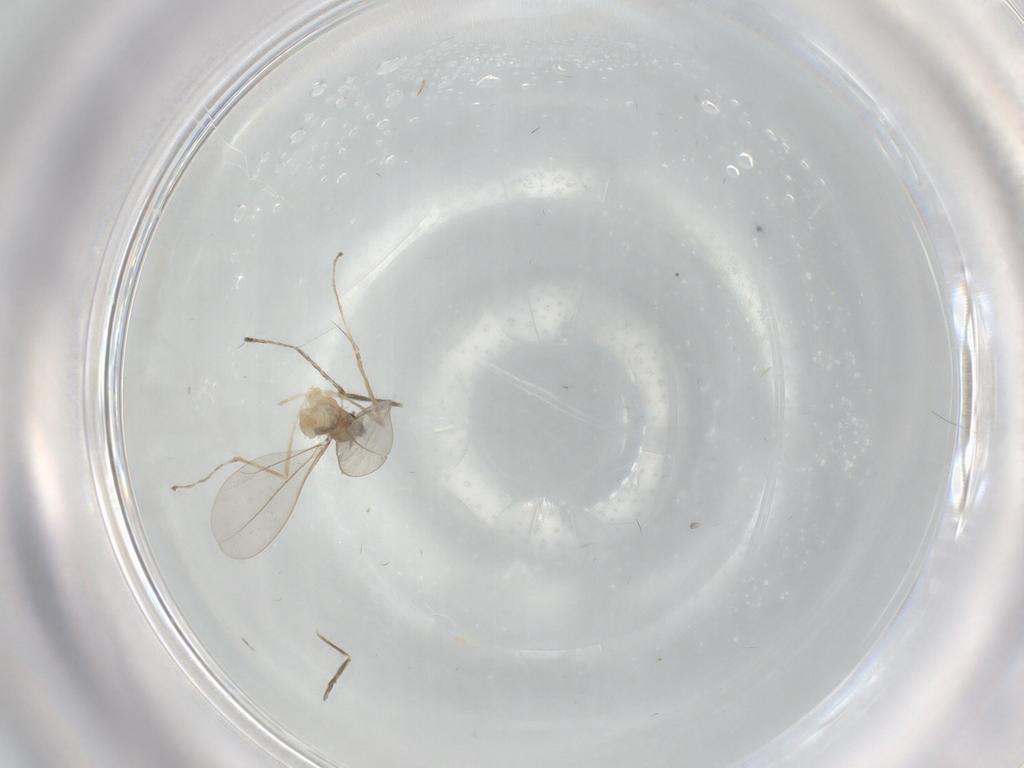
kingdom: Animalia
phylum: Arthropoda
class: Insecta
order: Diptera
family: Cecidomyiidae
